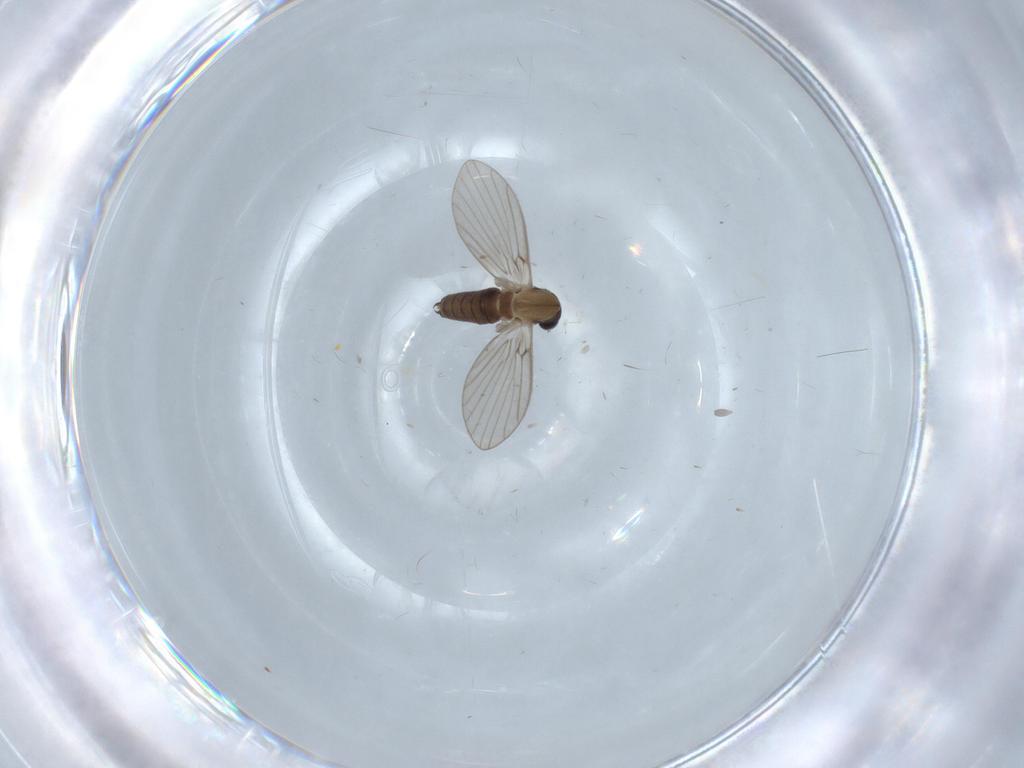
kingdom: Animalia
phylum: Arthropoda
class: Insecta
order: Diptera
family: Psychodidae
